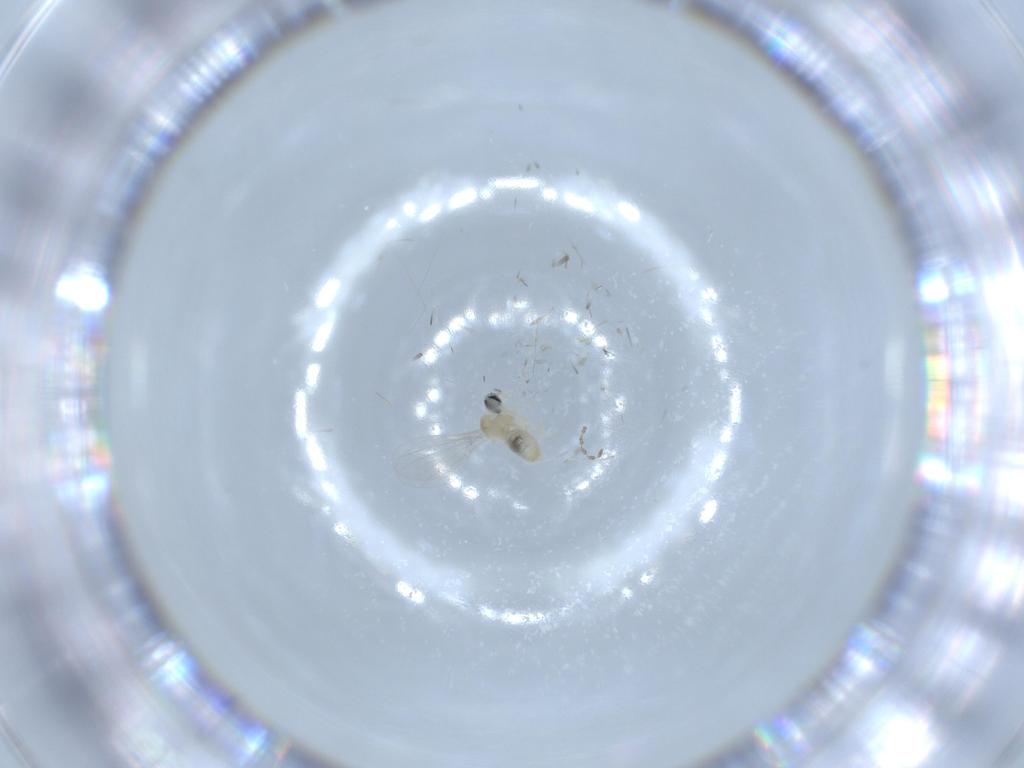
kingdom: Animalia
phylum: Arthropoda
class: Insecta
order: Diptera
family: Cecidomyiidae
